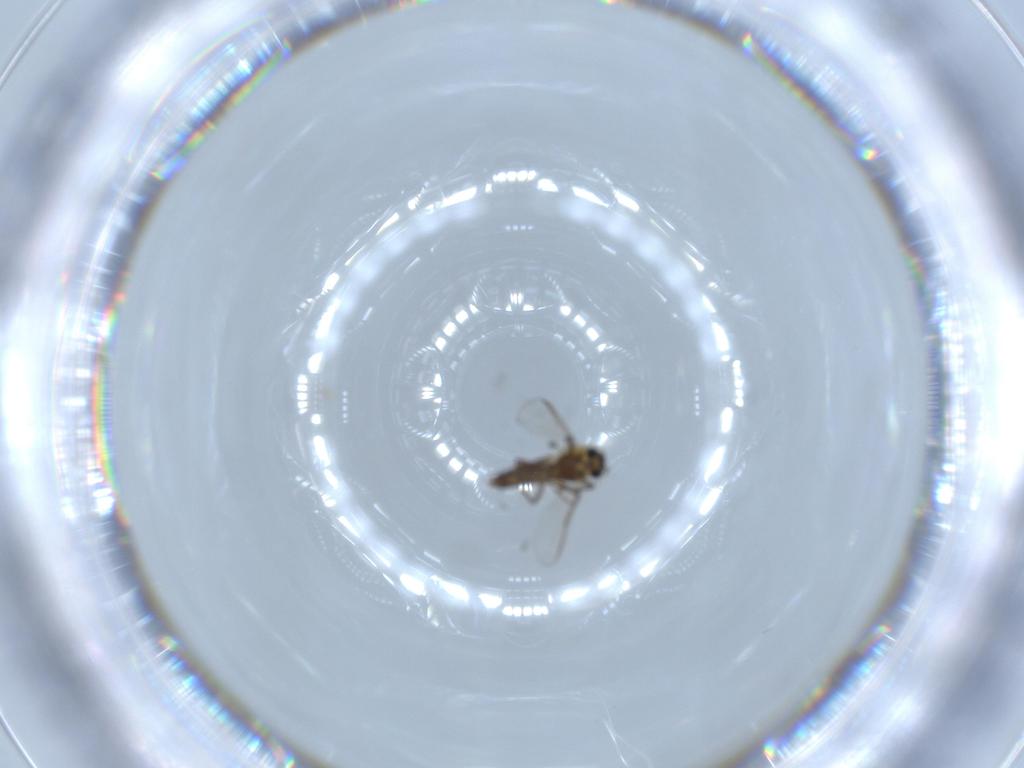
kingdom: Animalia
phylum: Arthropoda
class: Insecta
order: Diptera
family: Chironomidae
